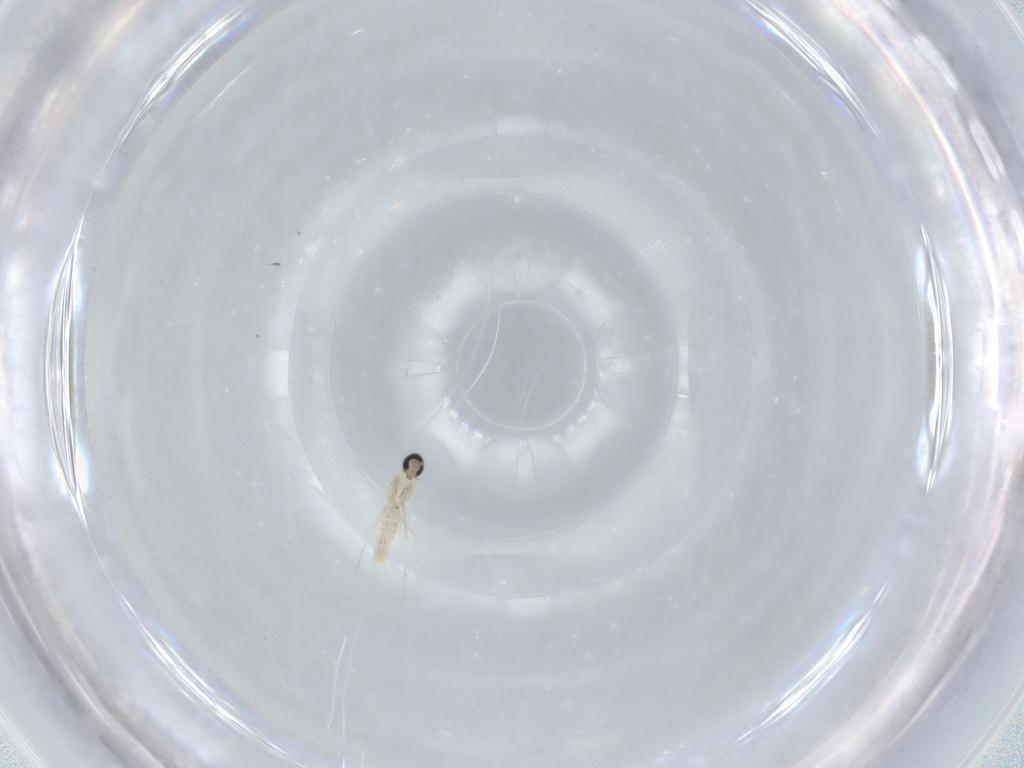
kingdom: Animalia
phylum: Arthropoda
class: Insecta
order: Diptera
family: Cecidomyiidae
